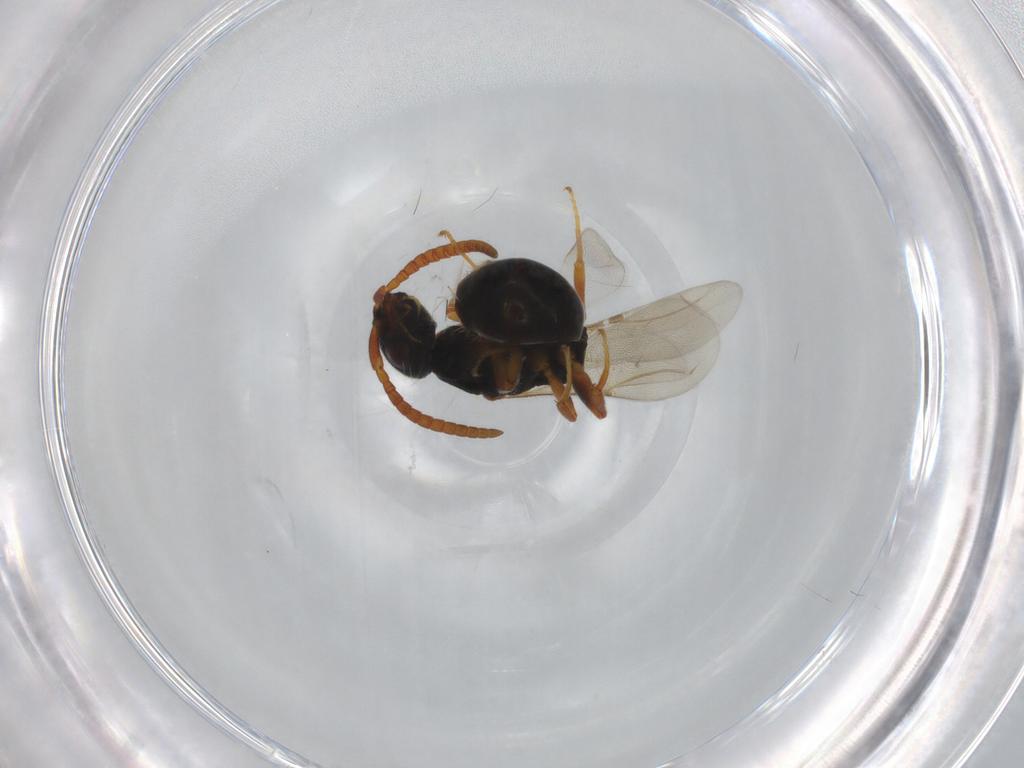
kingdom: Animalia
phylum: Arthropoda
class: Insecta
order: Hymenoptera
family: Bethylidae
